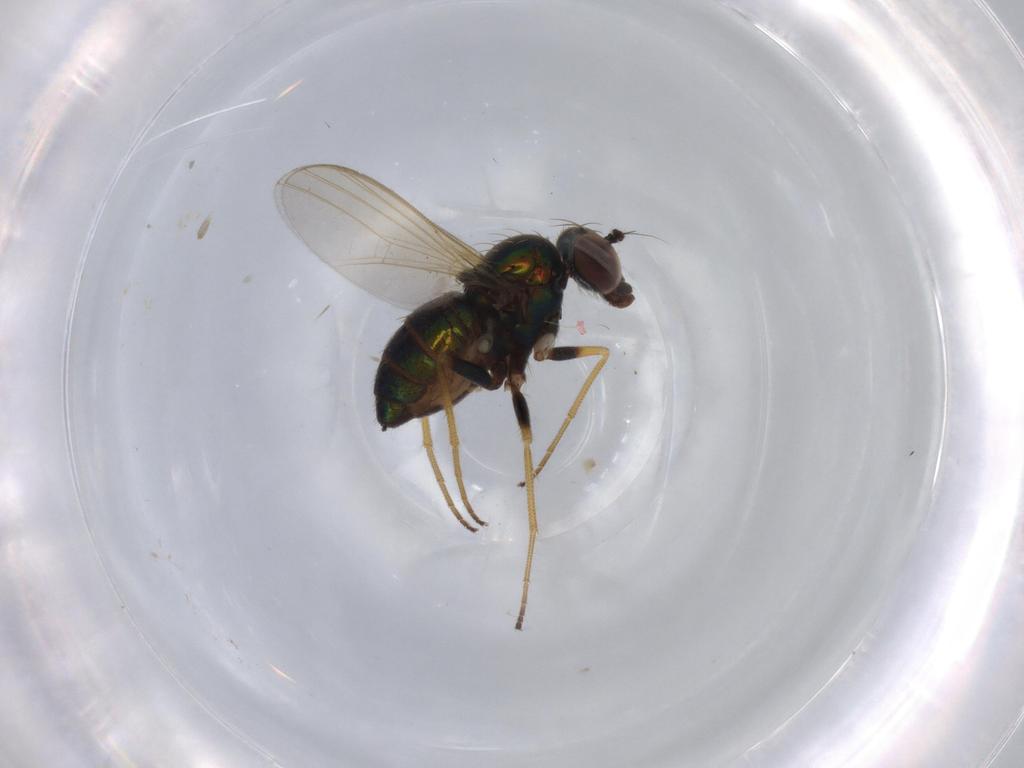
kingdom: Animalia
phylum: Arthropoda
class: Insecta
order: Diptera
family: Dolichopodidae
